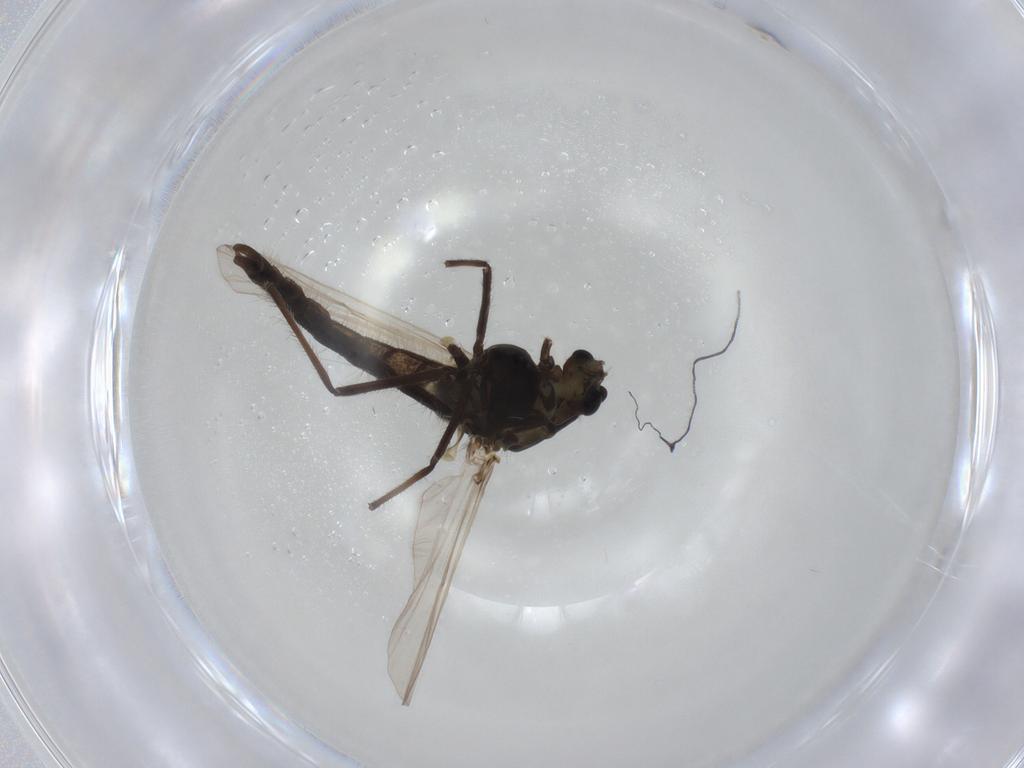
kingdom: Animalia
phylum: Arthropoda
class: Insecta
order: Diptera
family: Chironomidae
